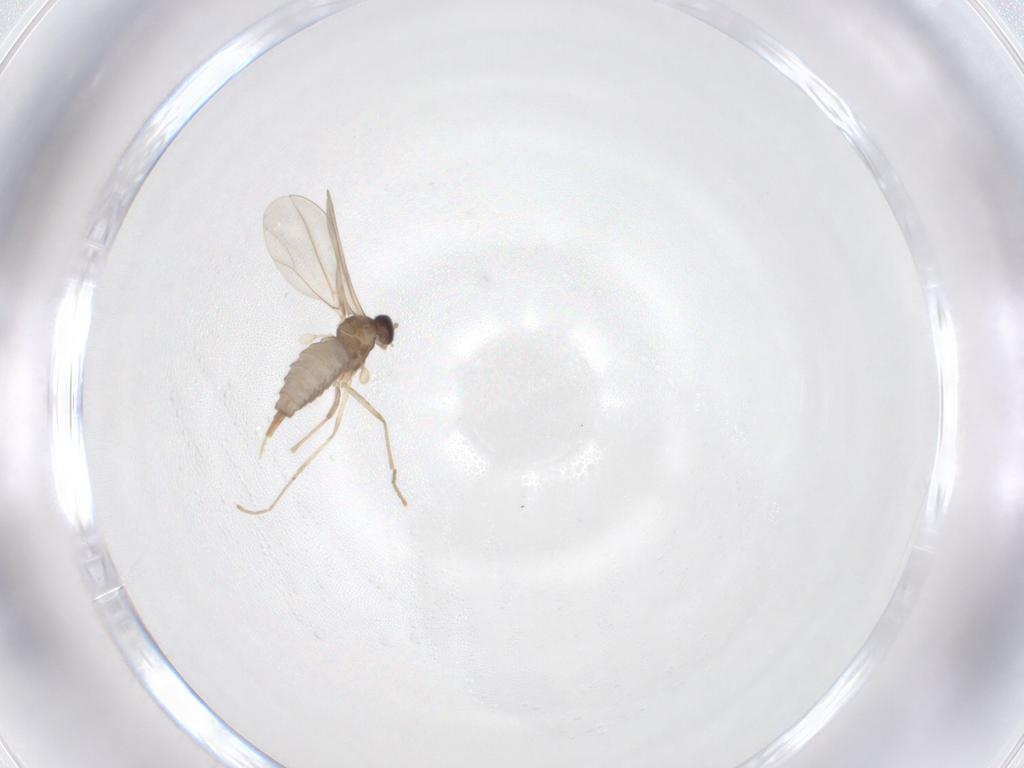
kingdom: Animalia
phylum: Arthropoda
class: Insecta
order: Diptera
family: Cecidomyiidae
